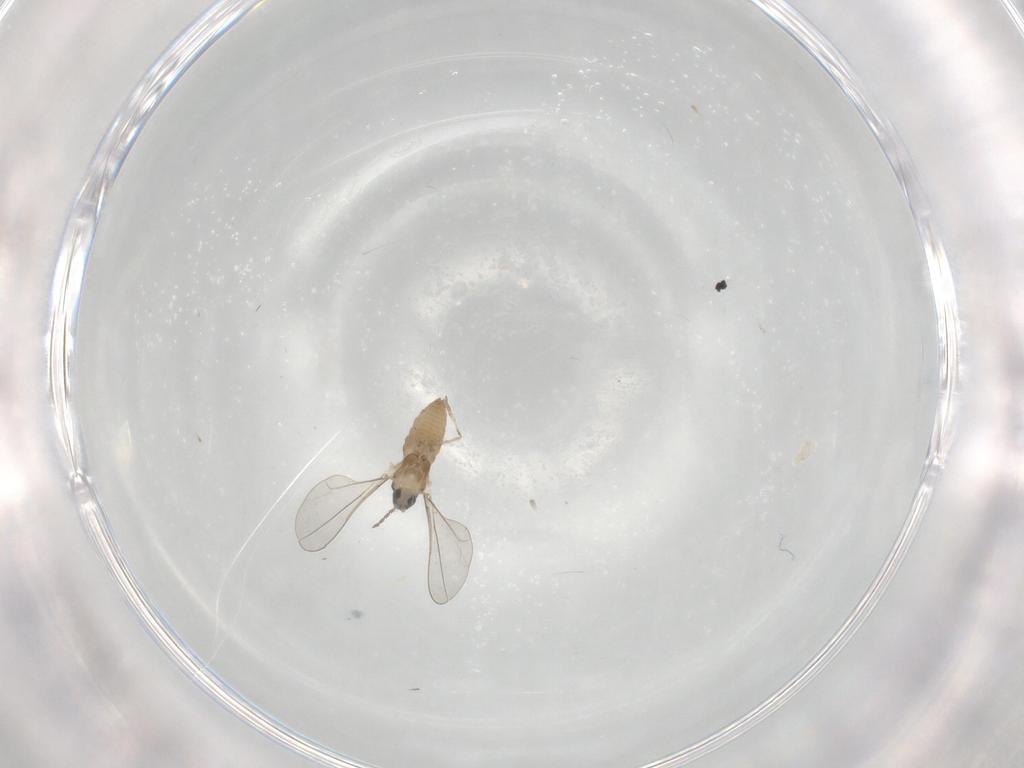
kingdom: Animalia
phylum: Arthropoda
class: Insecta
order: Diptera
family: Cecidomyiidae
